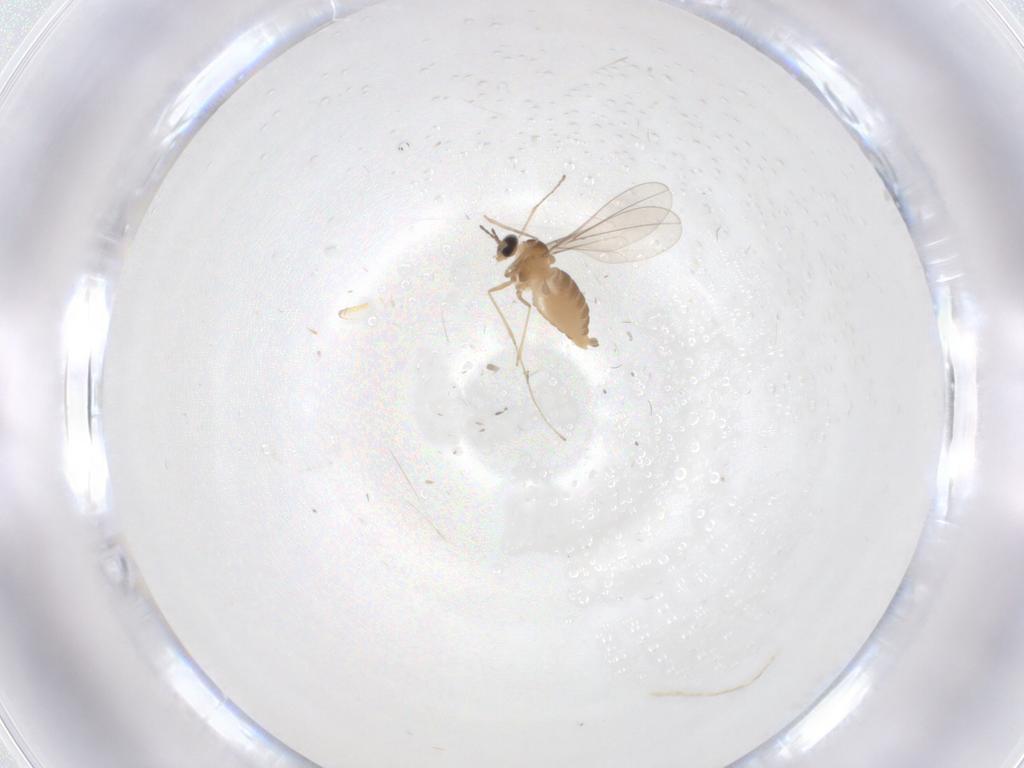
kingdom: Animalia
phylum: Arthropoda
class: Insecta
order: Diptera
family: Cecidomyiidae
